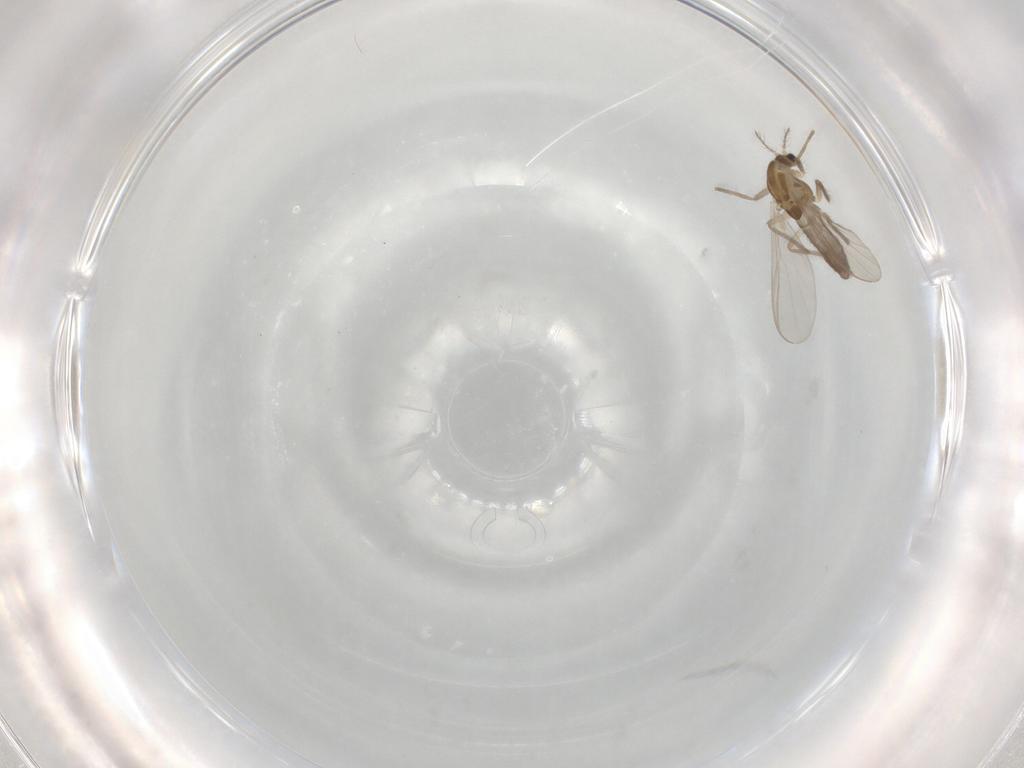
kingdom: Animalia
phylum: Arthropoda
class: Insecta
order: Diptera
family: Chironomidae
